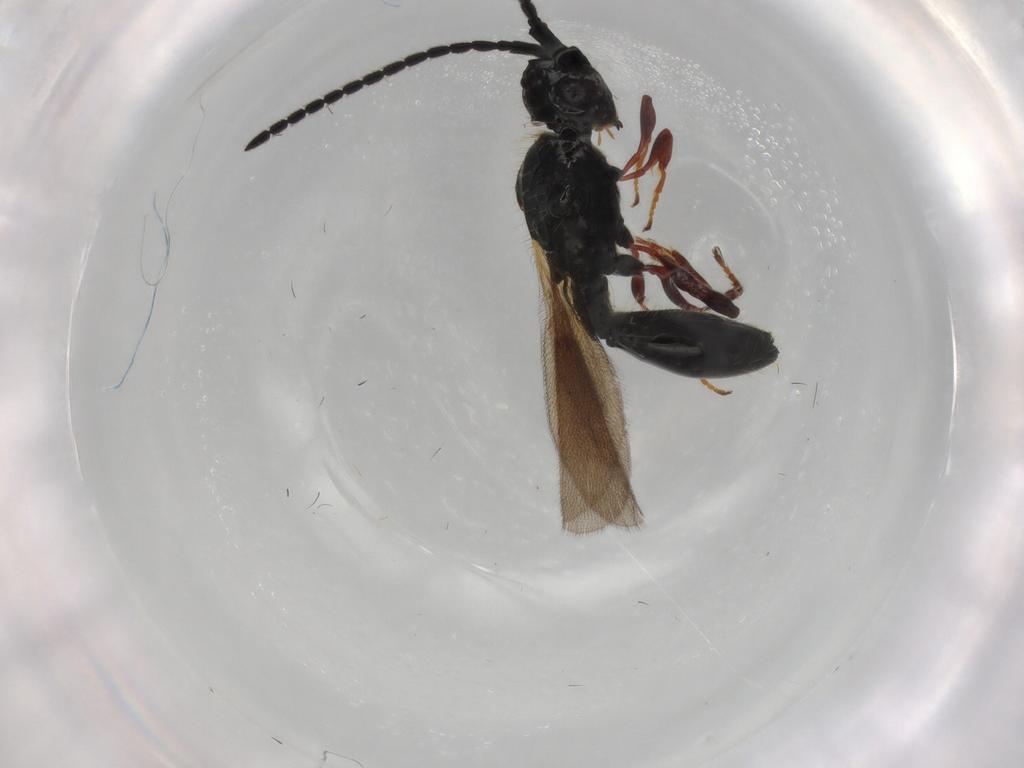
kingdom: Animalia
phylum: Arthropoda
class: Insecta
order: Hymenoptera
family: Diapriidae
